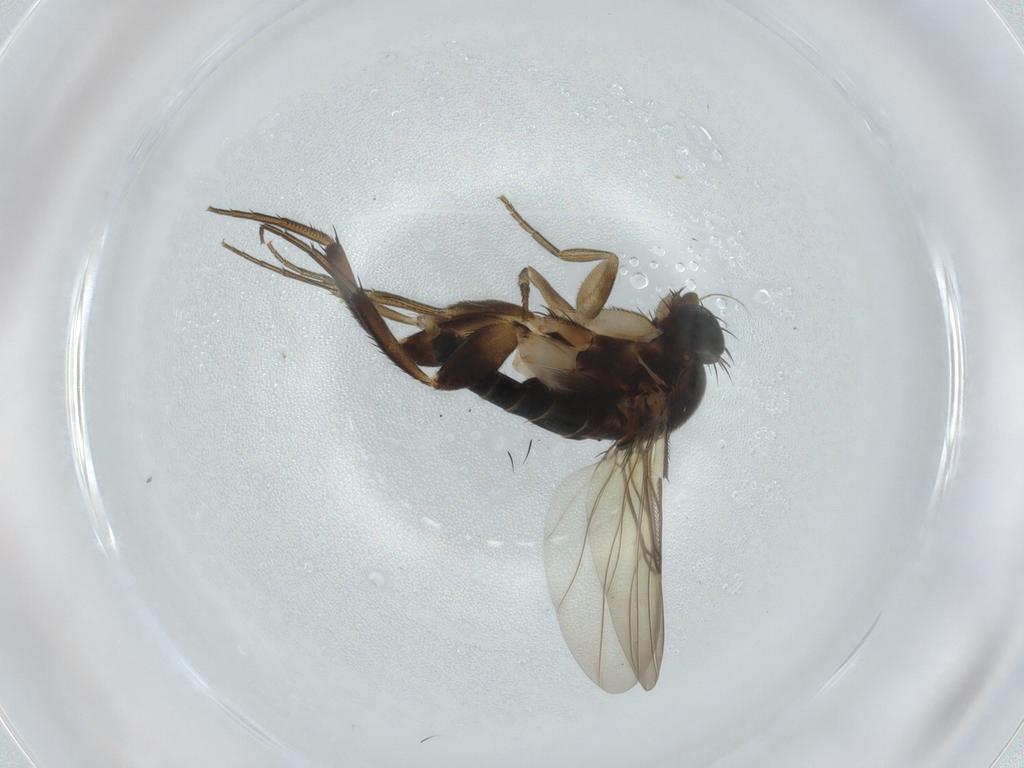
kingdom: Animalia
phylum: Arthropoda
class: Insecta
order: Diptera
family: Phoridae
